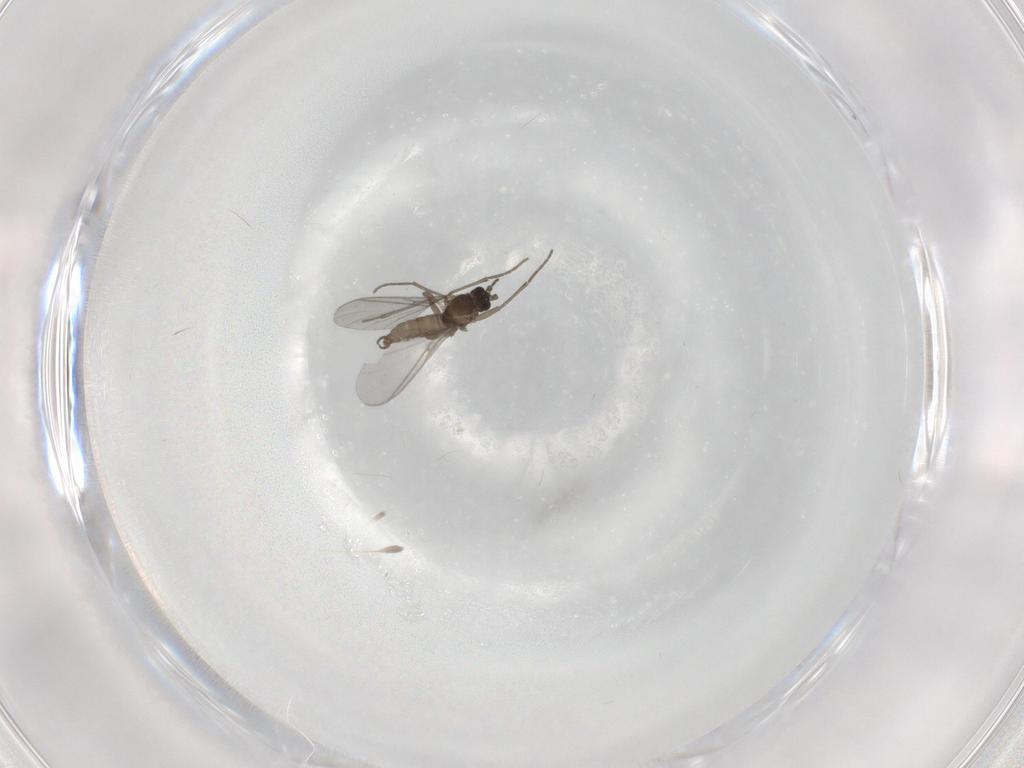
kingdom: Animalia
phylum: Arthropoda
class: Insecta
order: Diptera
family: Sciaridae
